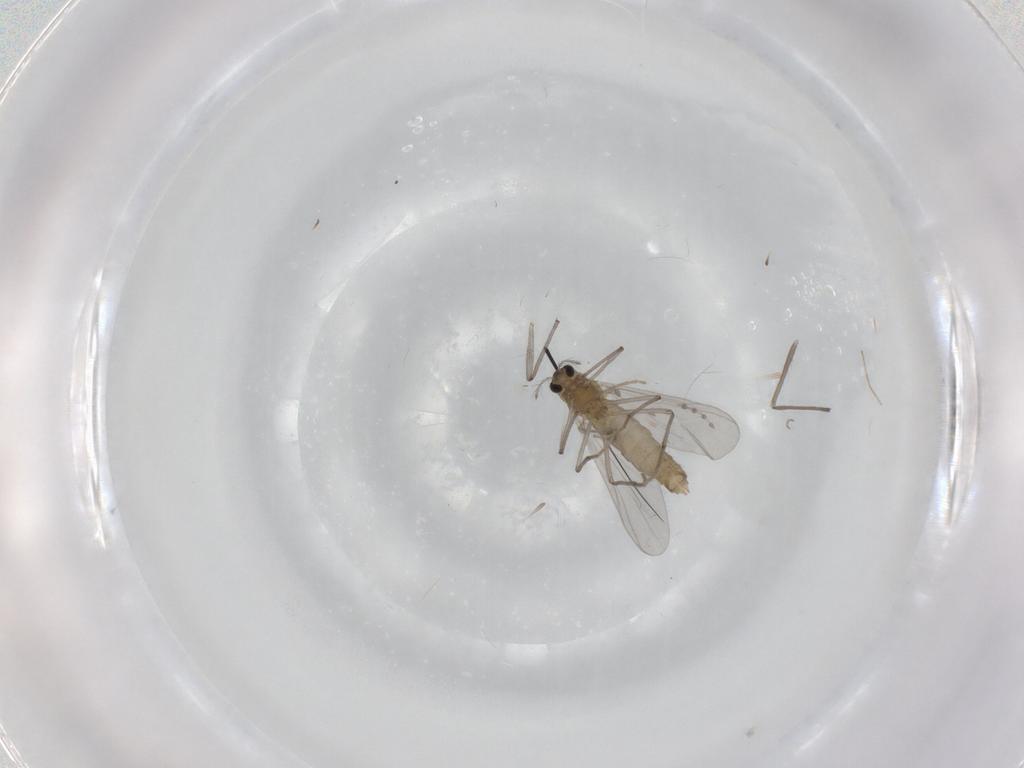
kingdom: Animalia
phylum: Arthropoda
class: Insecta
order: Diptera
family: Chironomidae
